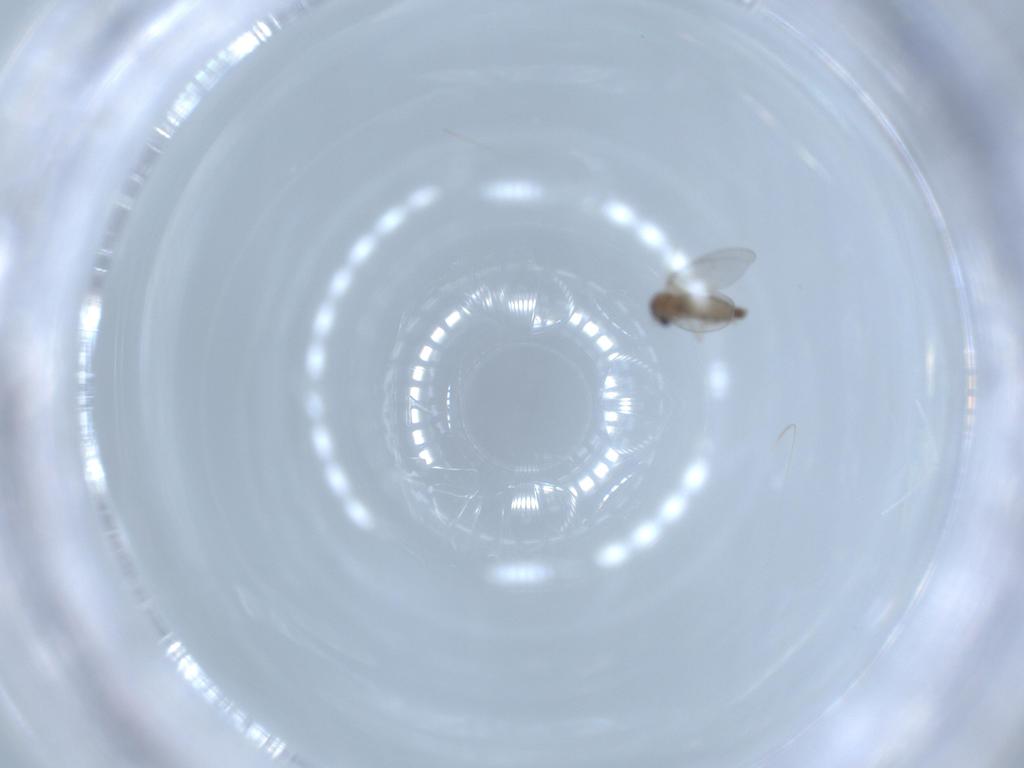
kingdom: Animalia
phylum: Arthropoda
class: Insecta
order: Diptera
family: Cecidomyiidae
